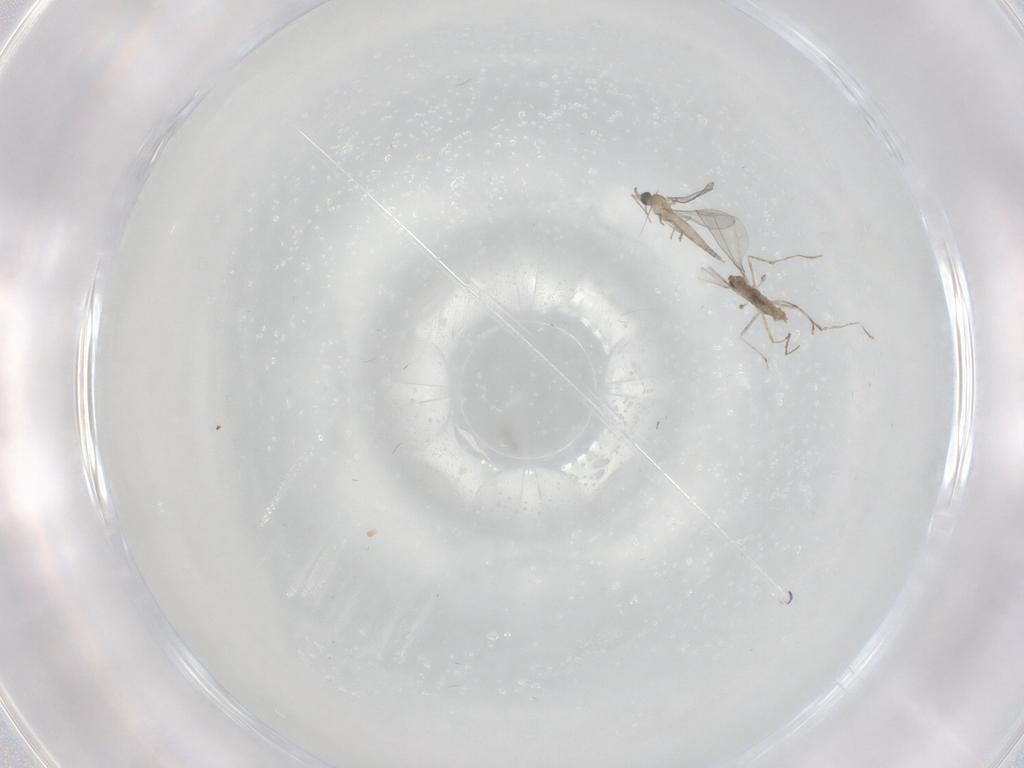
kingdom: Animalia
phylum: Arthropoda
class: Insecta
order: Diptera
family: Cecidomyiidae
